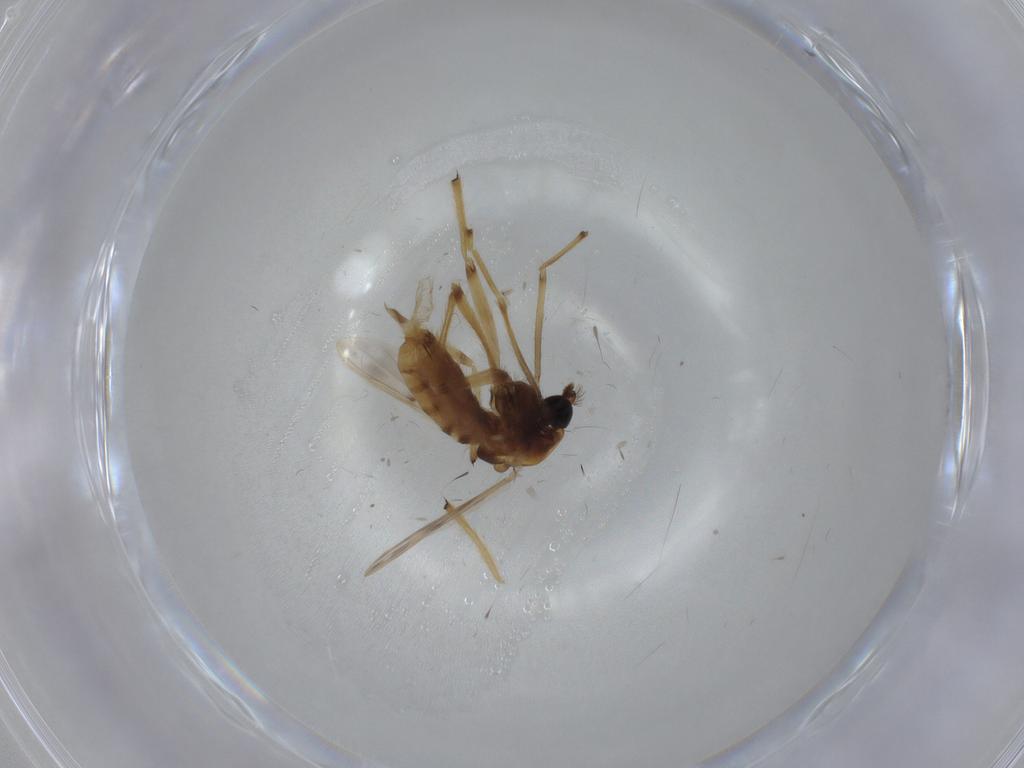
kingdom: Animalia
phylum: Arthropoda
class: Insecta
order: Diptera
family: Chironomidae
